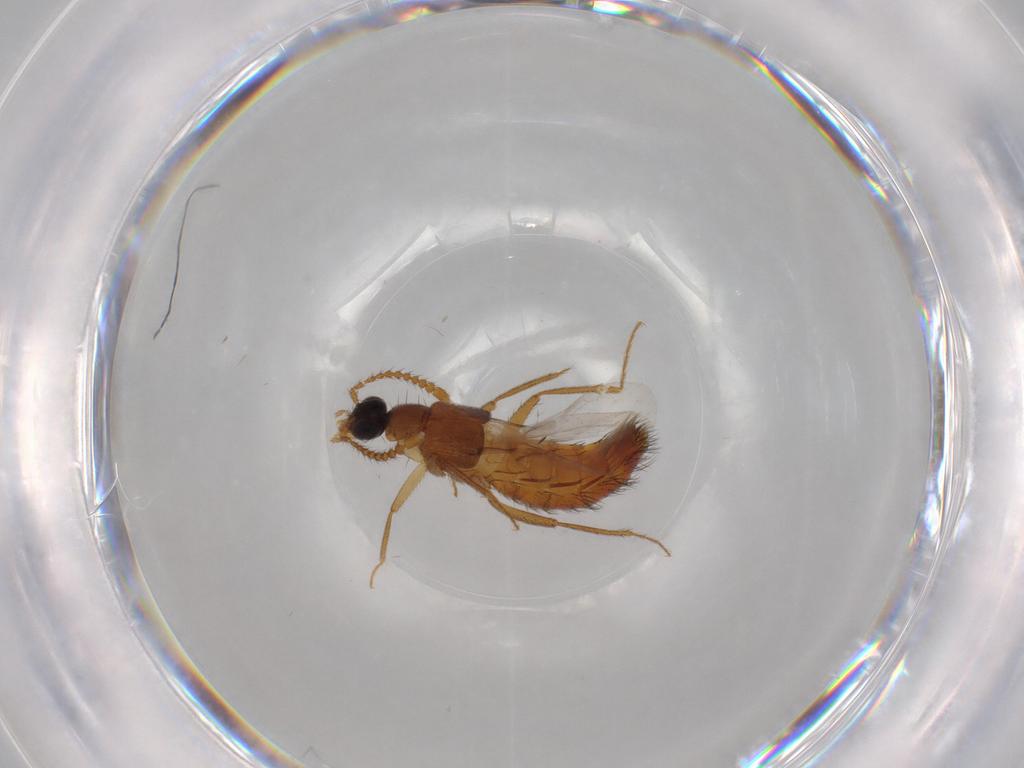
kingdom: Animalia
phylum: Arthropoda
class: Insecta
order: Coleoptera
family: Staphylinidae
